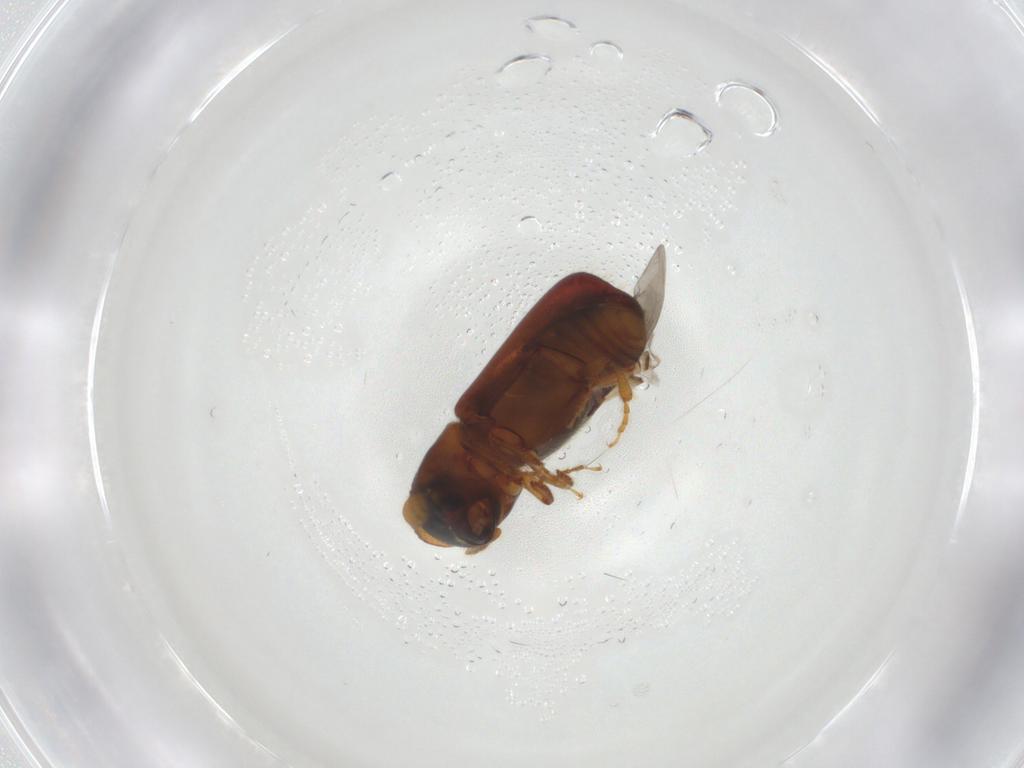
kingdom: Animalia
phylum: Arthropoda
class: Insecta
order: Coleoptera
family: Curculionidae
